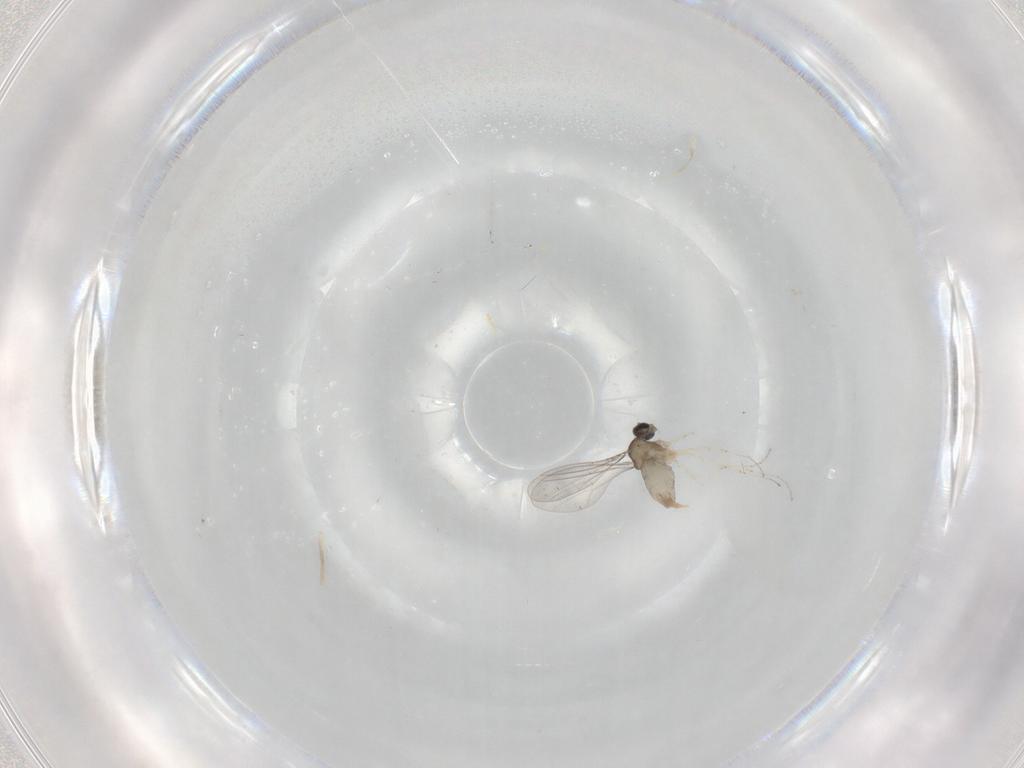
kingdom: Animalia
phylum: Arthropoda
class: Insecta
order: Diptera
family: Cecidomyiidae
